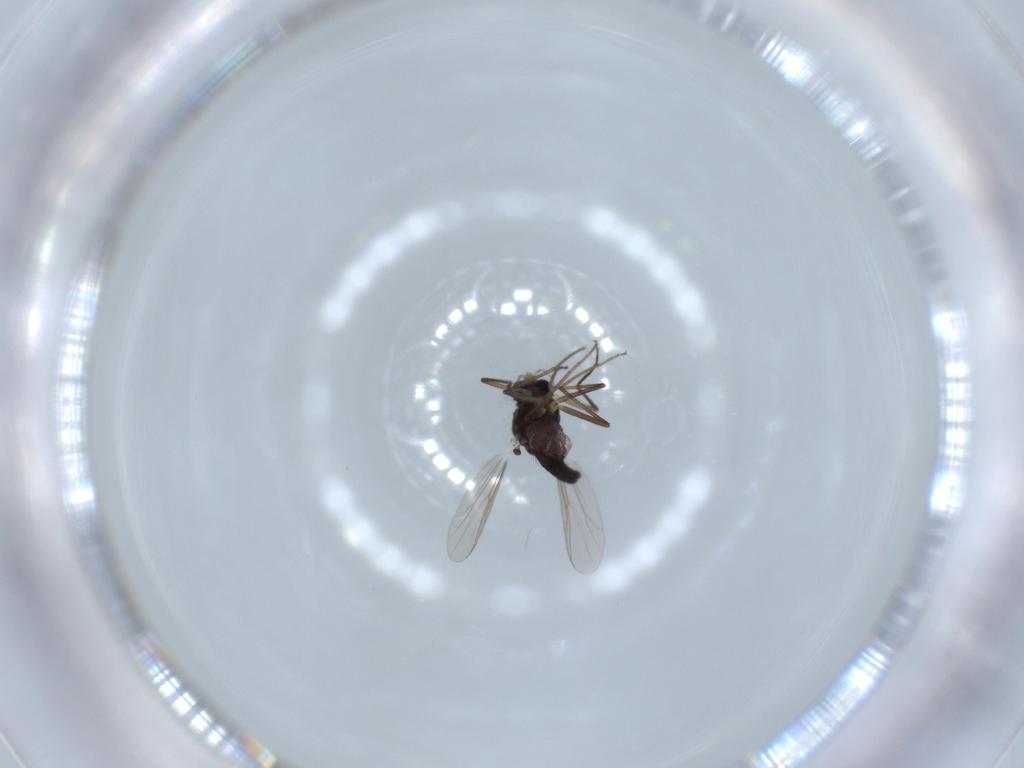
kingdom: Animalia
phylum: Arthropoda
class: Insecta
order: Diptera
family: Chironomidae
